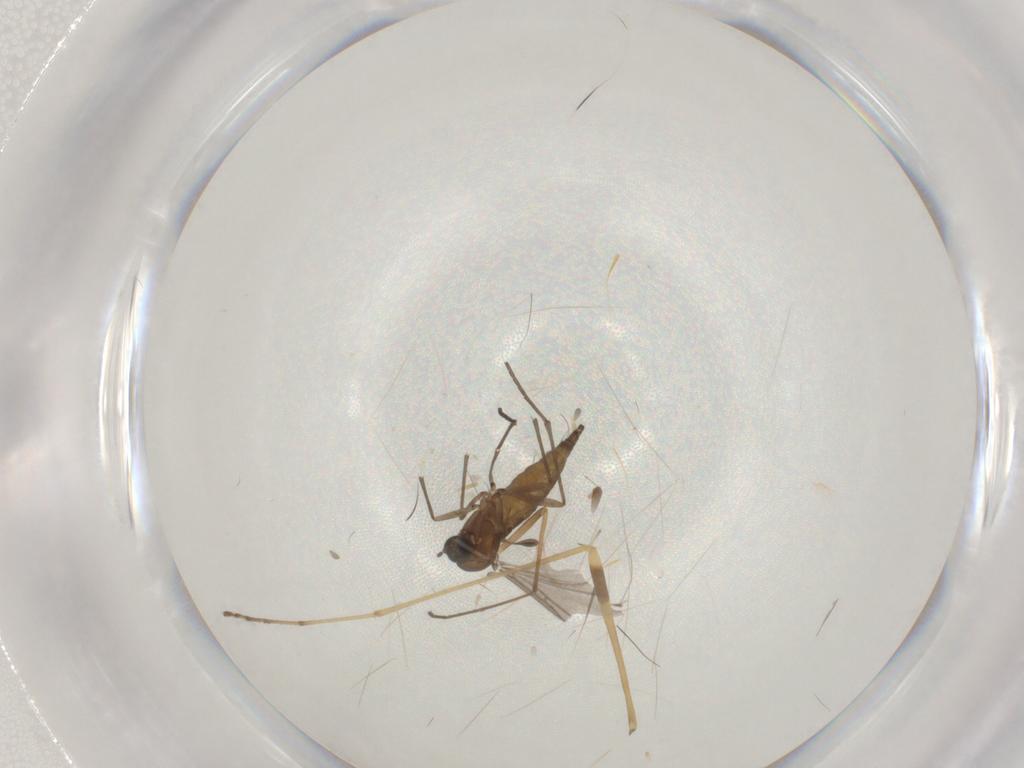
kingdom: Animalia
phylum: Arthropoda
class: Insecta
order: Diptera
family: Sciaridae
